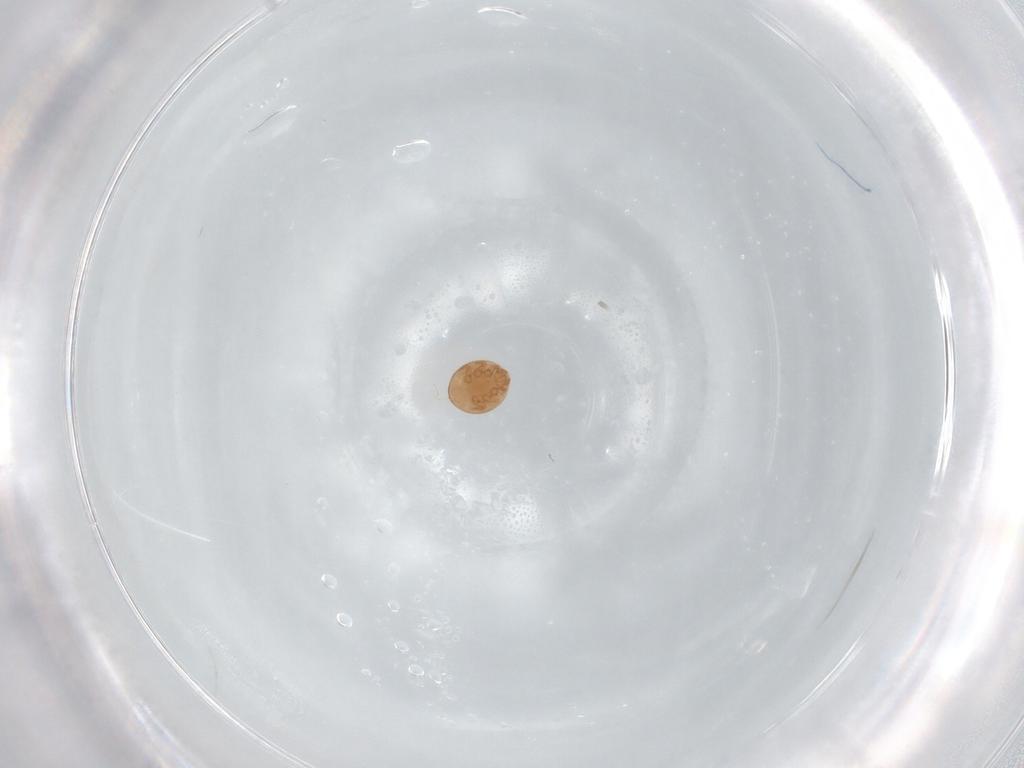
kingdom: Animalia
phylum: Arthropoda
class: Arachnida
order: Mesostigmata
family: Trematuridae
